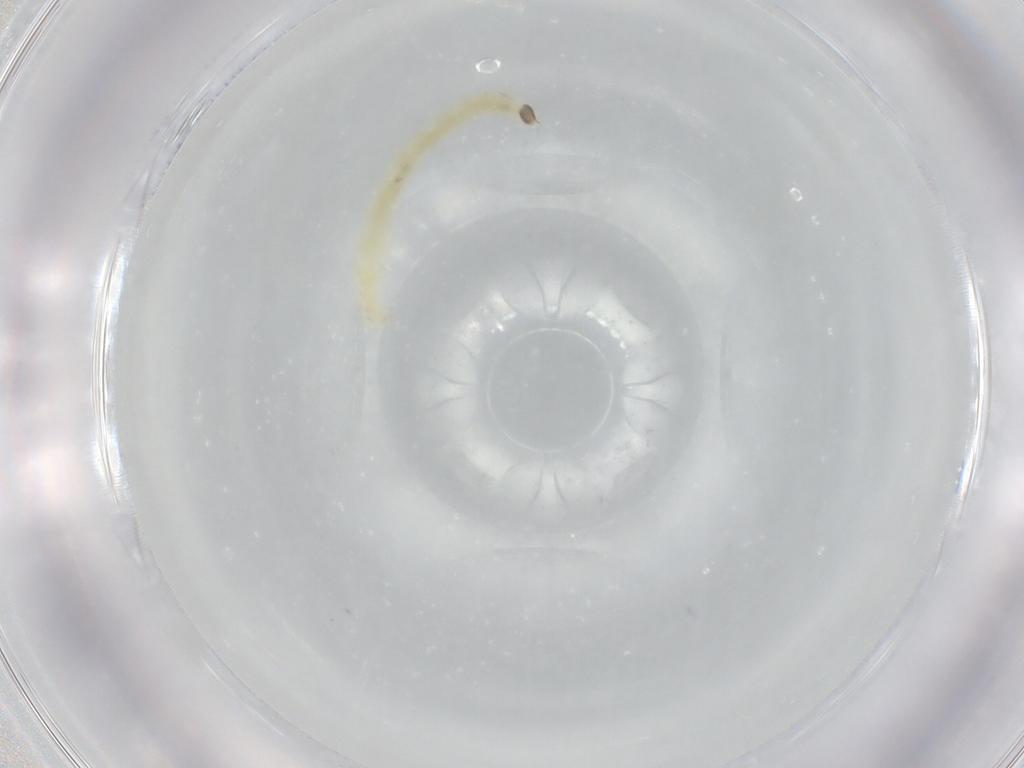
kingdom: Animalia
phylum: Arthropoda
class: Insecta
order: Diptera
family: Chironomidae
